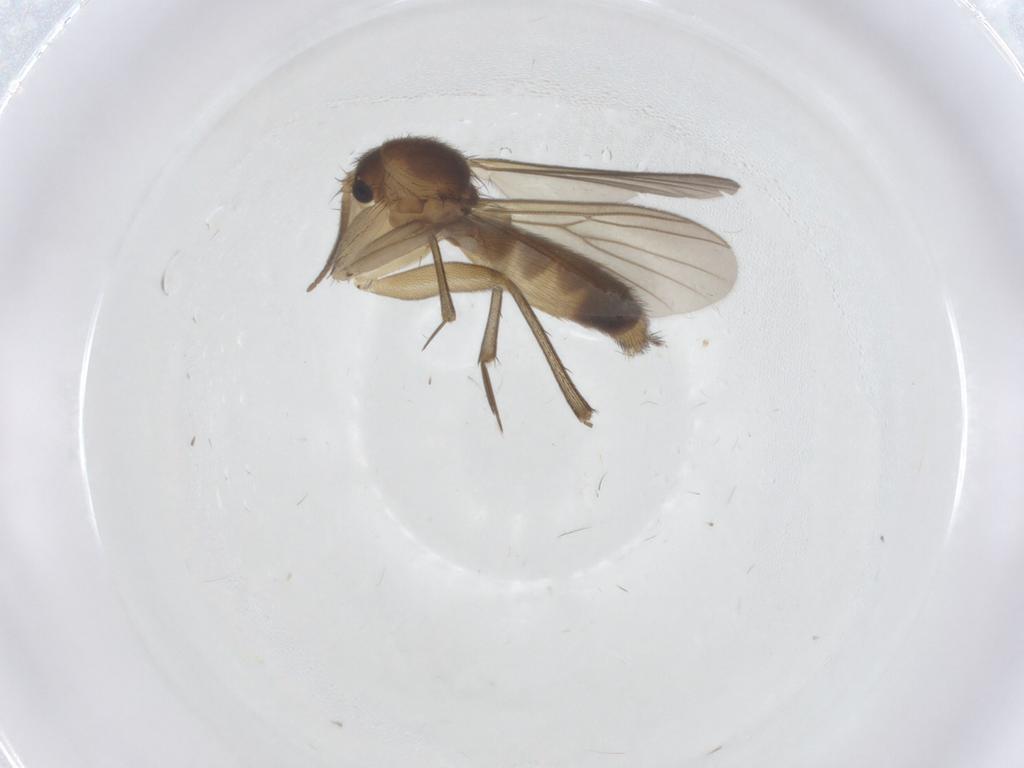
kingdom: Animalia
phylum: Arthropoda
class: Insecta
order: Diptera
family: Mycetophilidae
